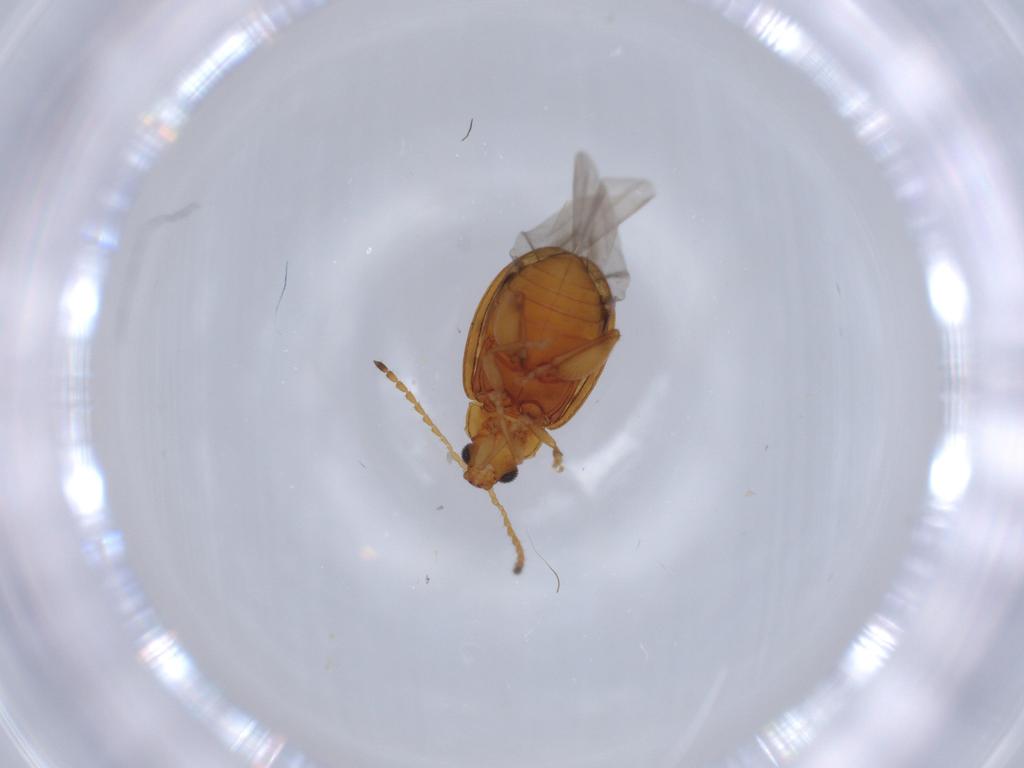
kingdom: Animalia
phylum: Arthropoda
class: Insecta
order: Coleoptera
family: Chrysomelidae
